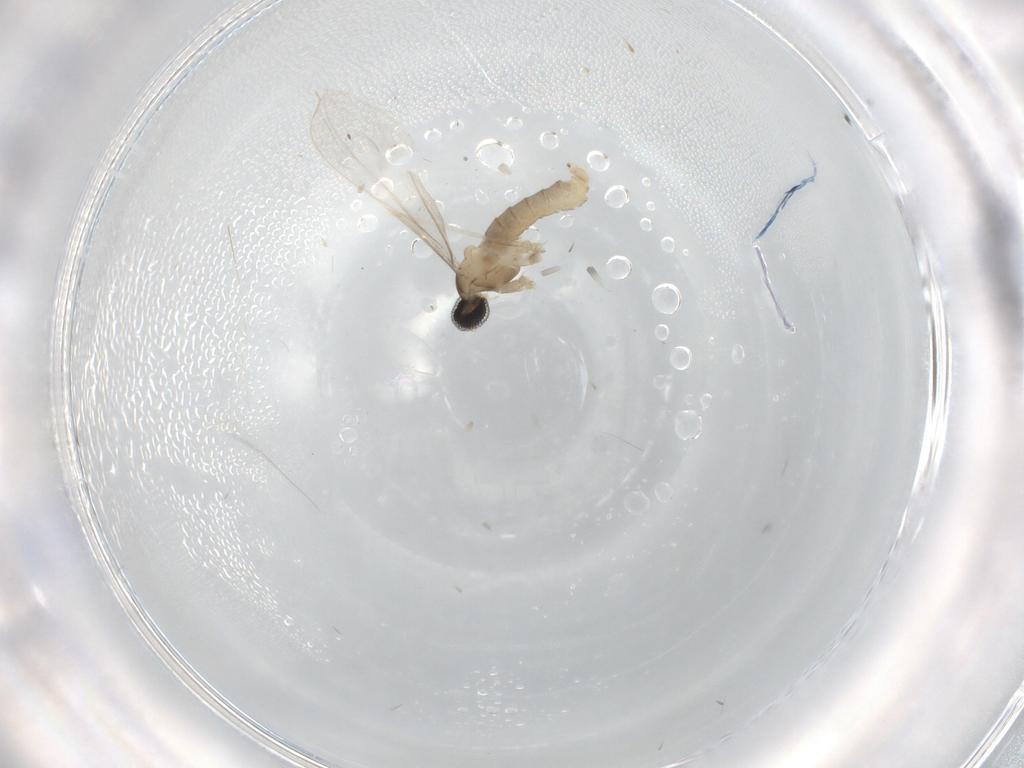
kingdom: Animalia
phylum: Arthropoda
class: Insecta
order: Diptera
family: Cecidomyiidae
